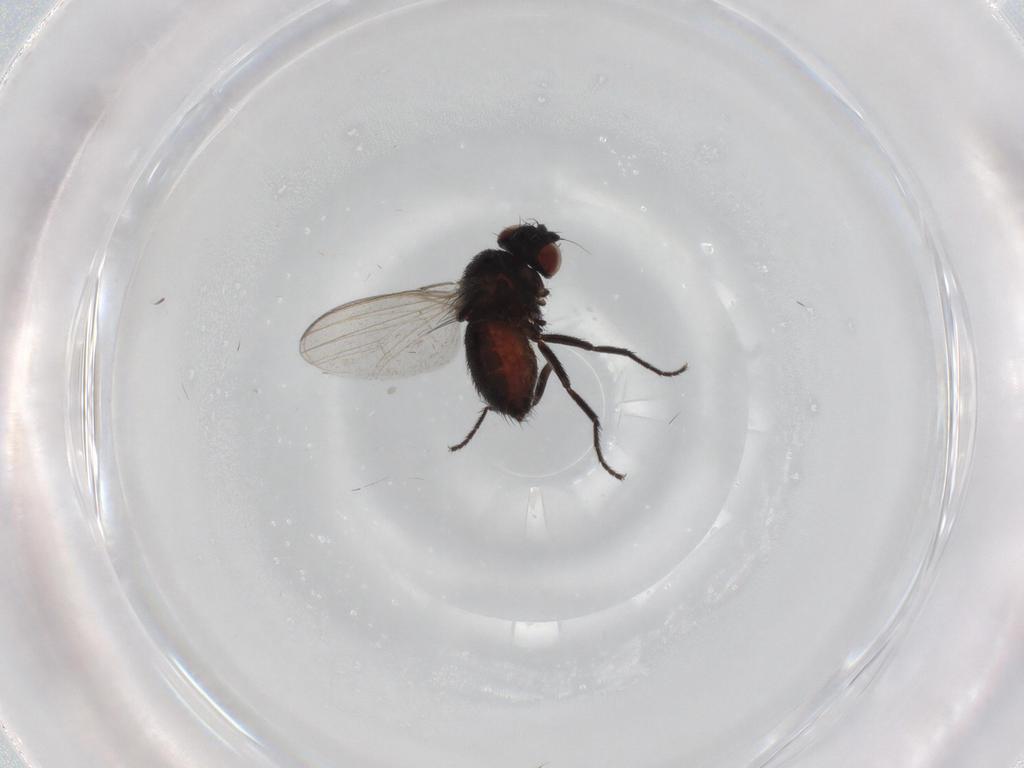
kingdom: Animalia
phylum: Arthropoda
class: Insecta
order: Diptera
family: Milichiidae
